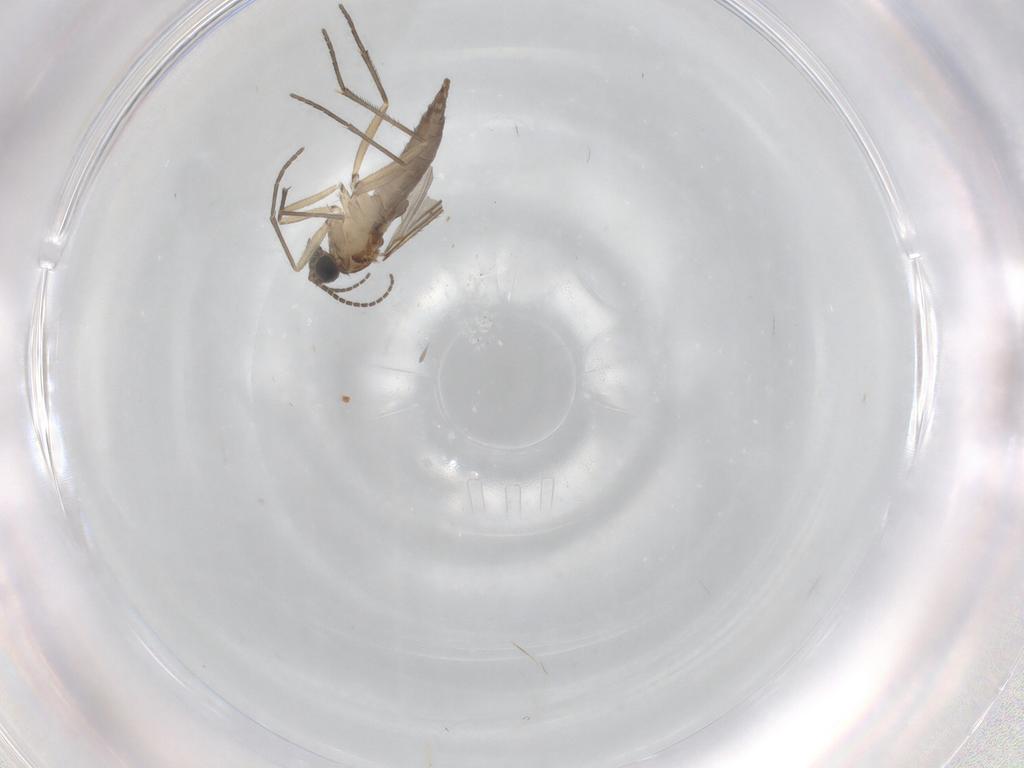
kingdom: Animalia
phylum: Arthropoda
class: Insecta
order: Diptera
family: Sciaridae
